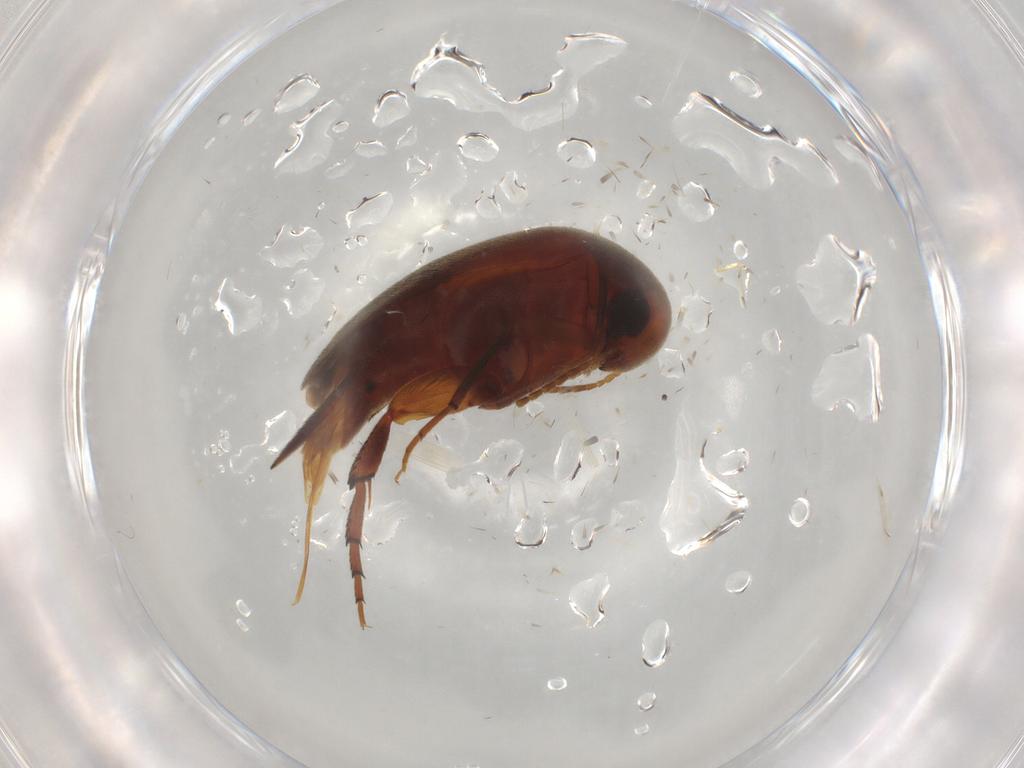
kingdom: Animalia
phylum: Arthropoda
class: Insecta
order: Coleoptera
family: Mordellidae
